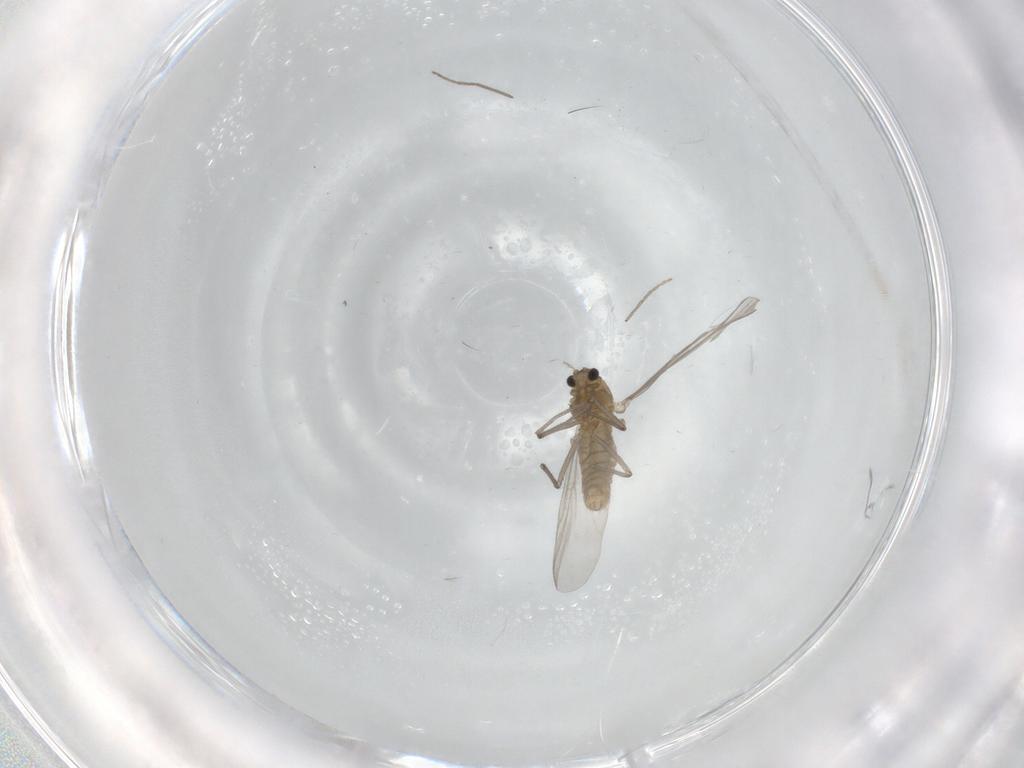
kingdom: Animalia
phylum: Arthropoda
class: Insecta
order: Diptera
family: Chironomidae
